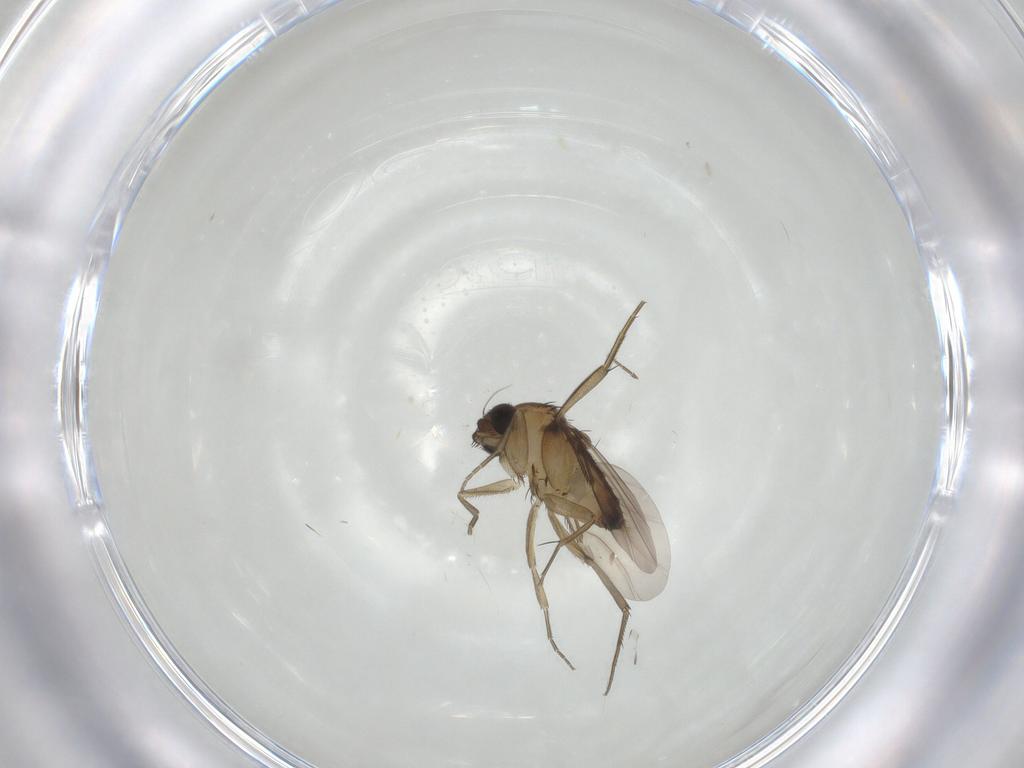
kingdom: Animalia
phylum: Arthropoda
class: Insecta
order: Diptera
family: Phoridae
